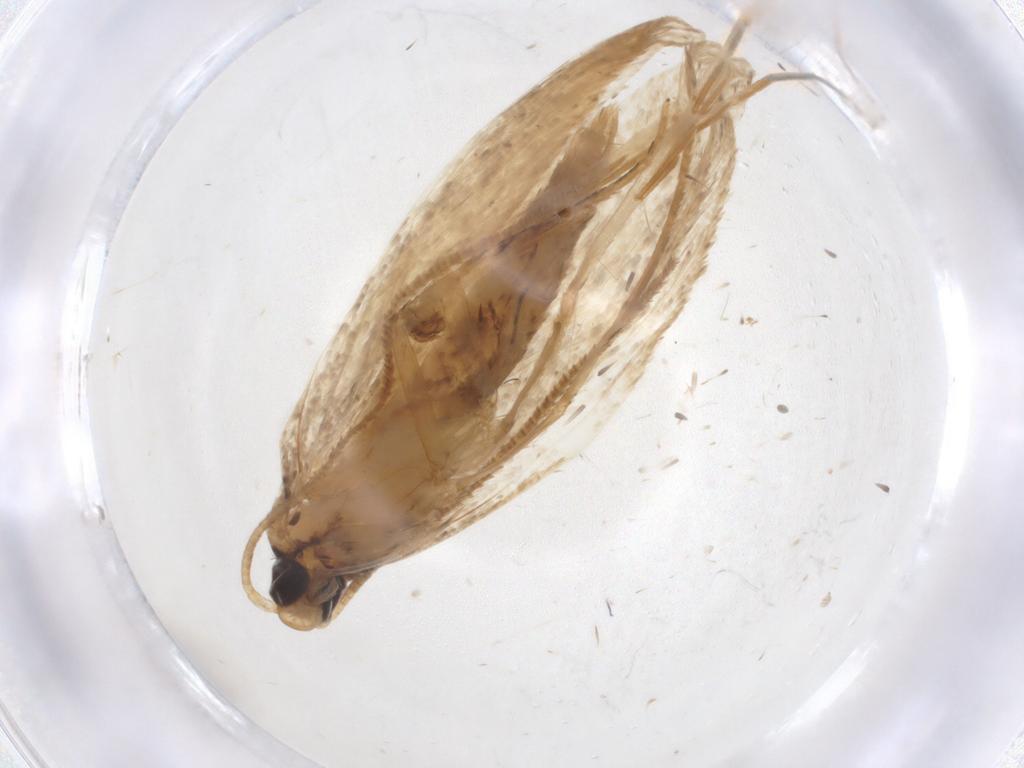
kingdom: Animalia
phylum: Arthropoda
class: Insecta
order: Lepidoptera
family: Oecophoridae
